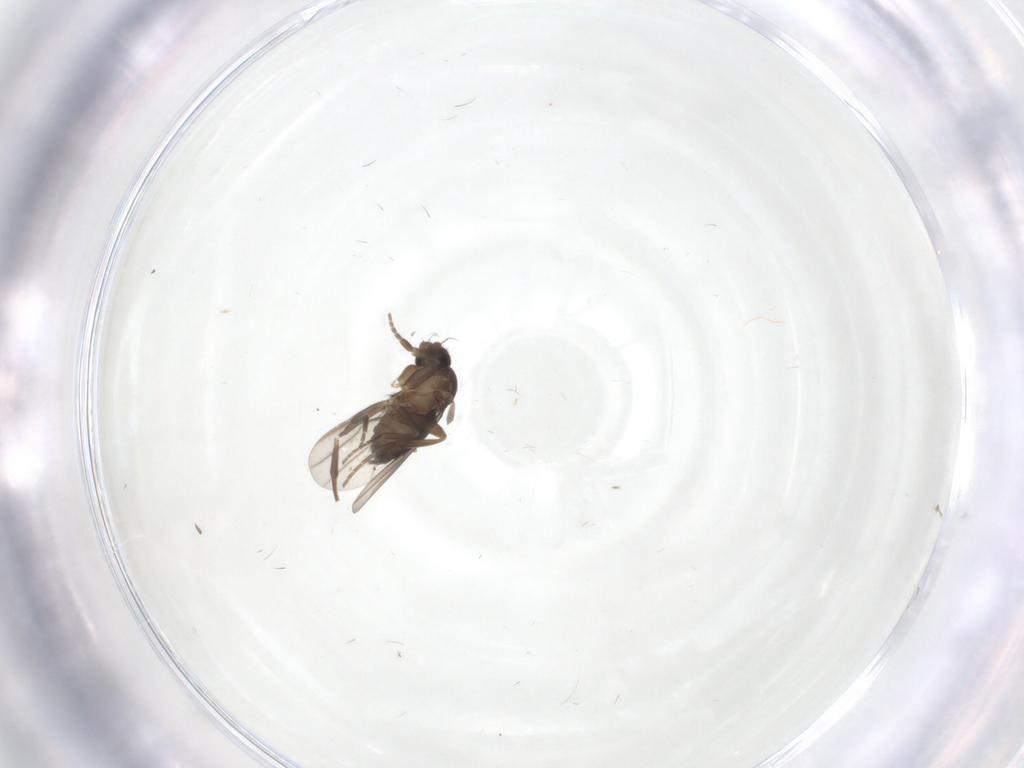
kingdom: Animalia
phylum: Arthropoda
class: Insecta
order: Diptera
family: Phoridae
